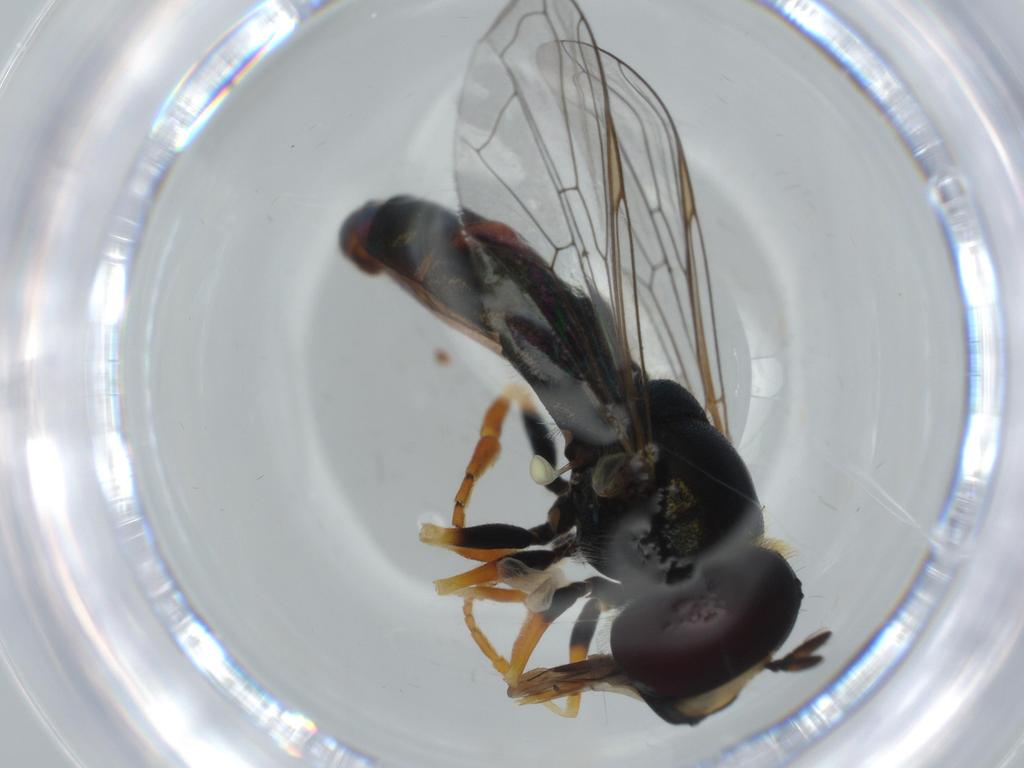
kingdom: Animalia
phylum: Arthropoda
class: Insecta
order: Diptera
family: Syrphidae
